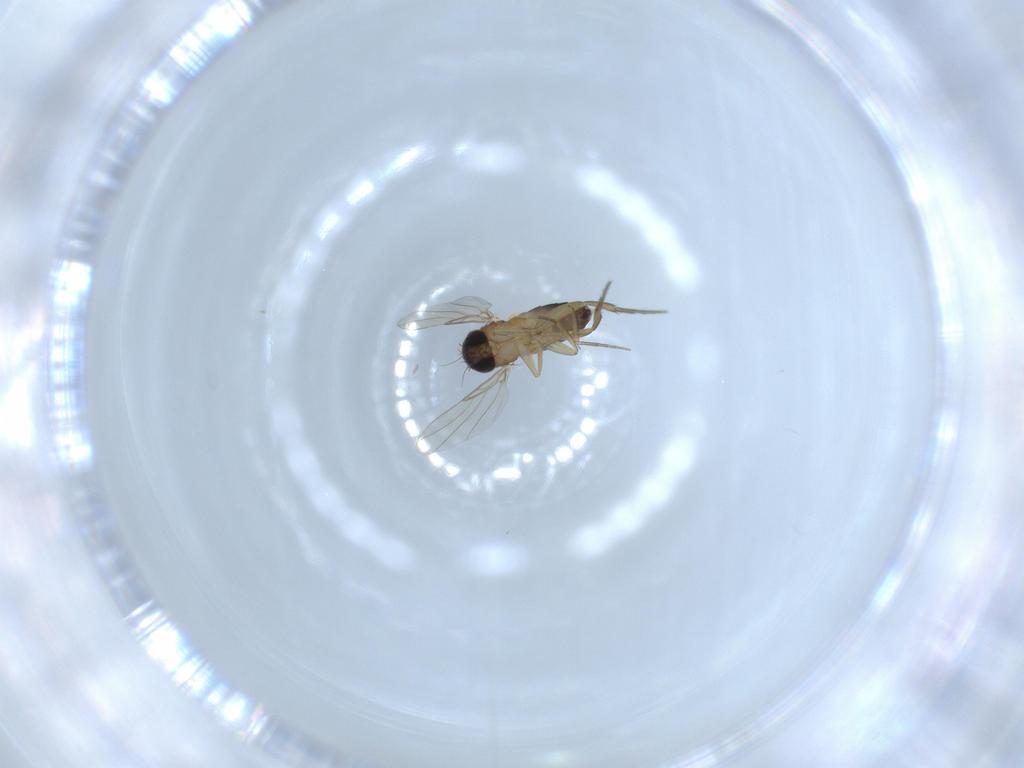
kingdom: Animalia
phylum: Arthropoda
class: Insecta
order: Diptera
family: Phoridae
